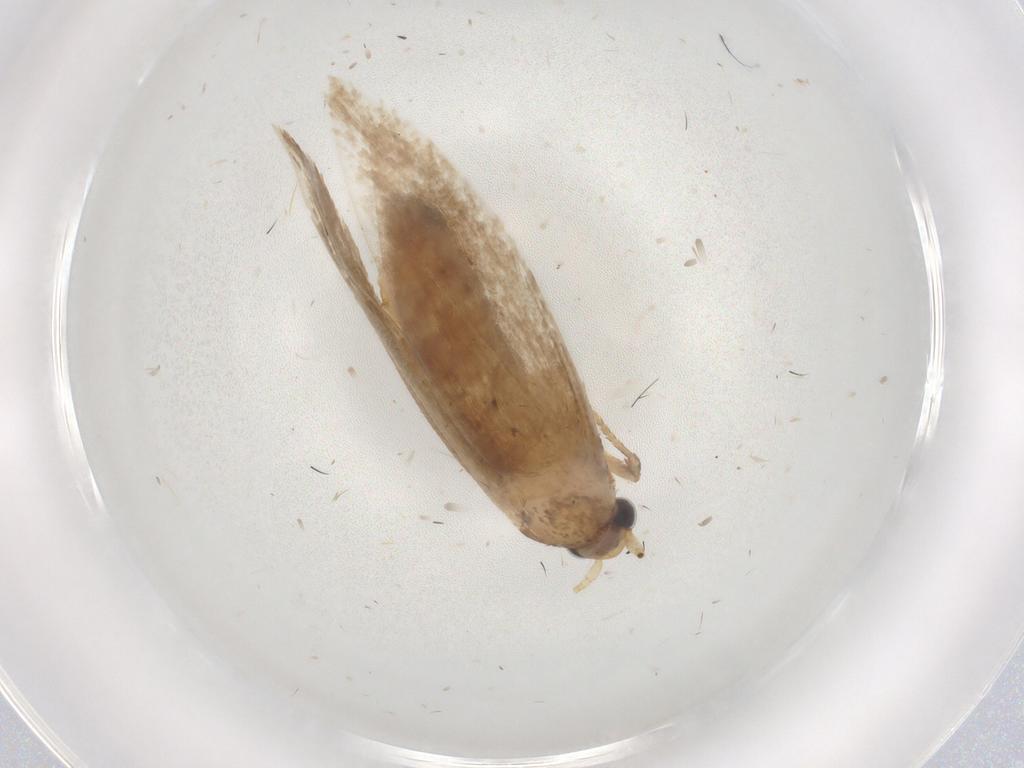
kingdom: Animalia
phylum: Arthropoda
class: Insecta
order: Lepidoptera
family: Tineidae
